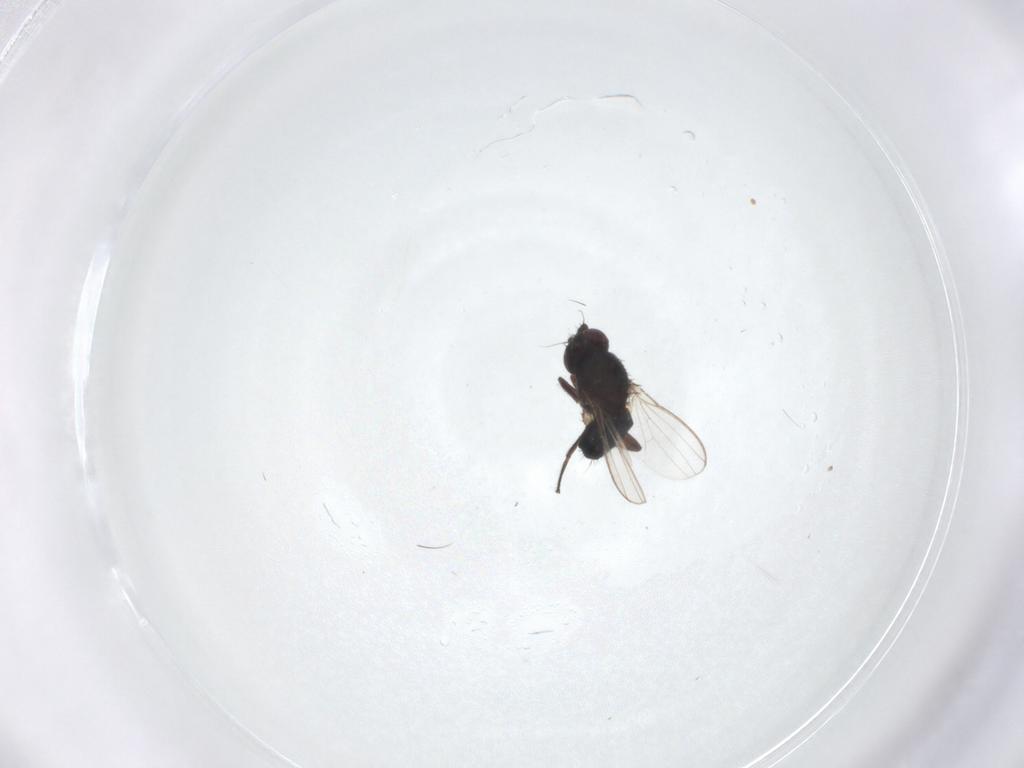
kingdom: Animalia
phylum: Arthropoda
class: Insecta
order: Diptera
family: Milichiidae
